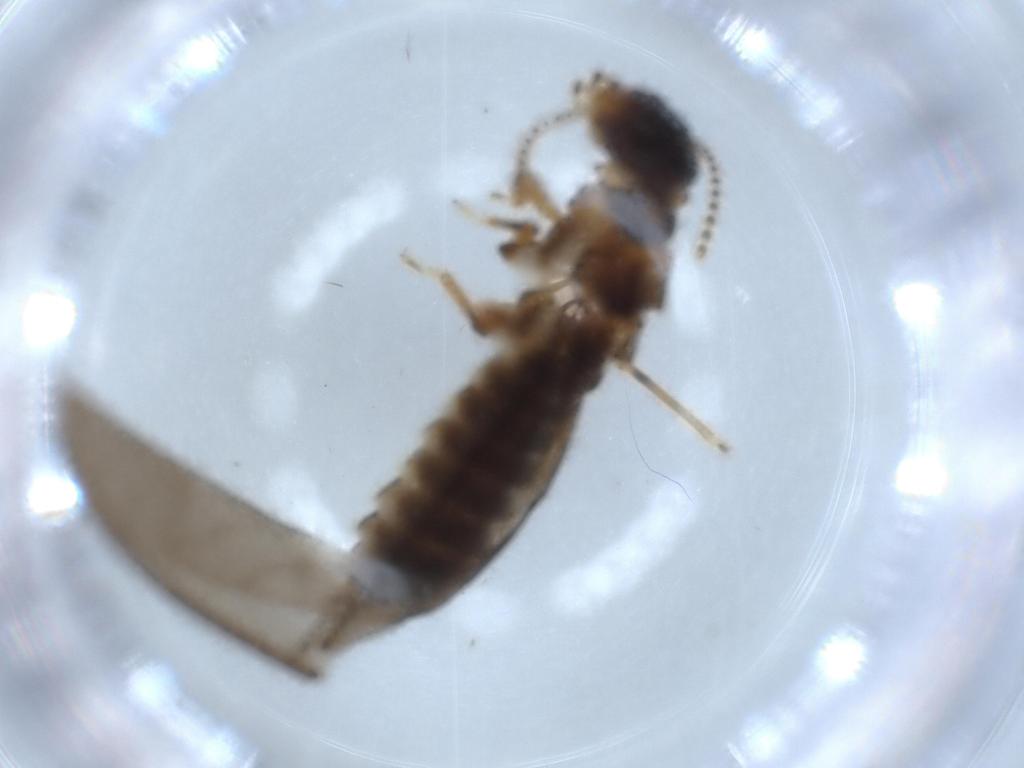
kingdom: Animalia
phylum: Arthropoda
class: Insecta
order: Blattodea
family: Termitidae
